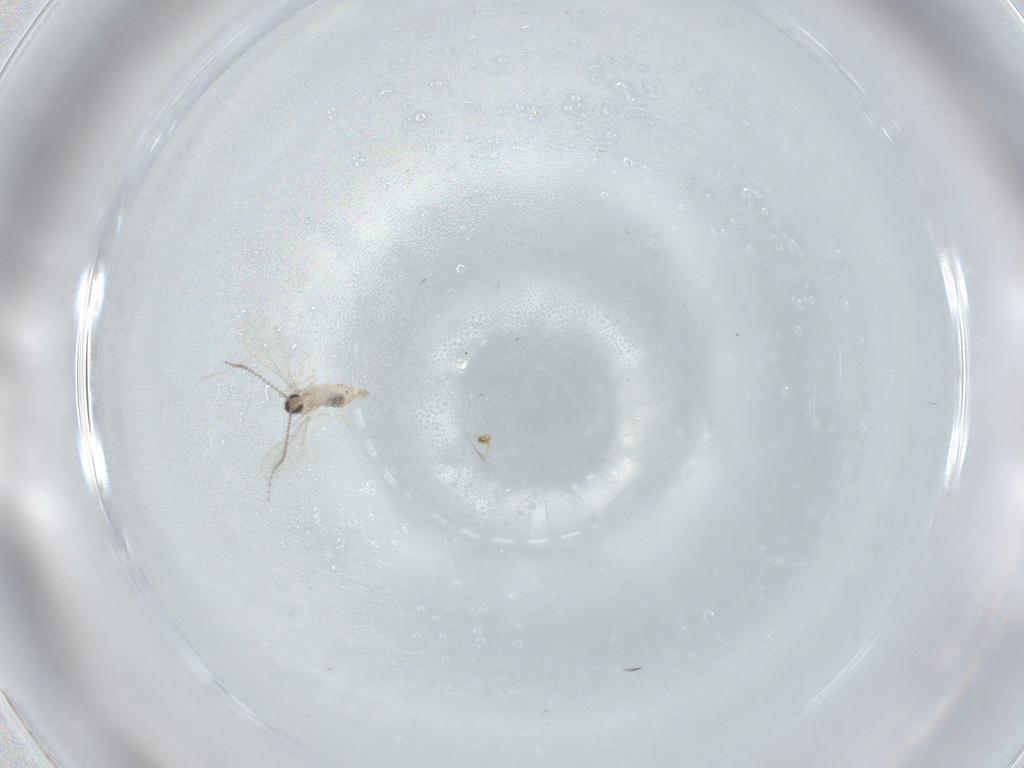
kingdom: Animalia
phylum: Arthropoda
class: Insecta
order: Diptera
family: Cecidomyiidae
